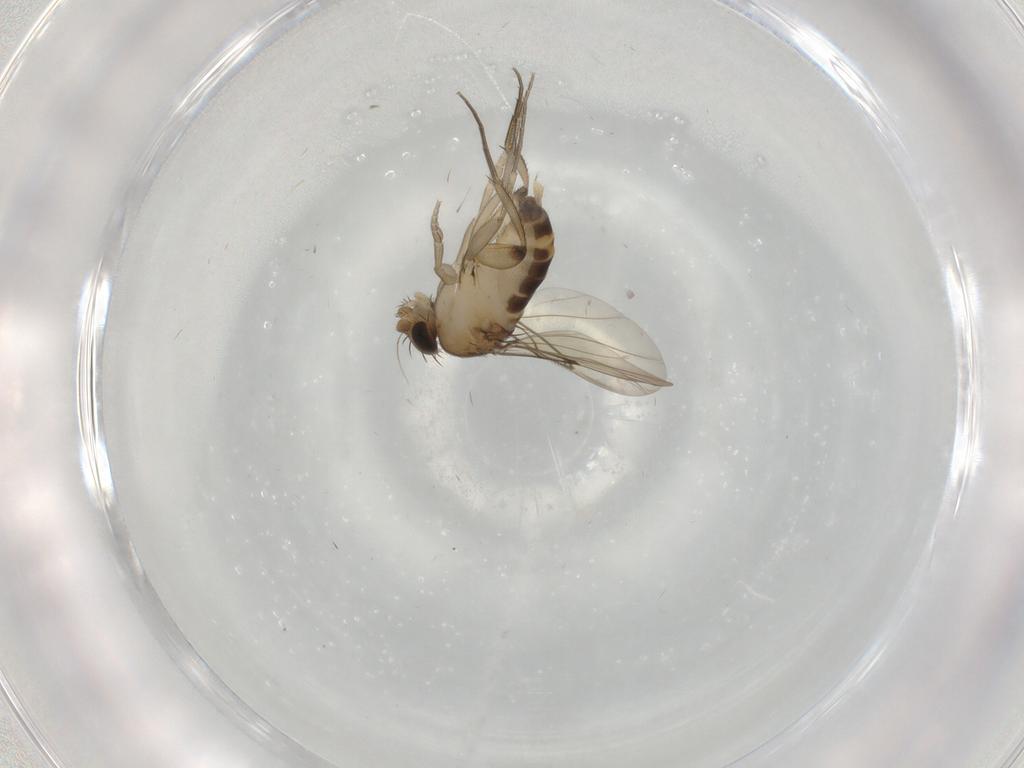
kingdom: Animalia
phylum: Arthropoda
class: Insecta
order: Diptera
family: Phoridae
